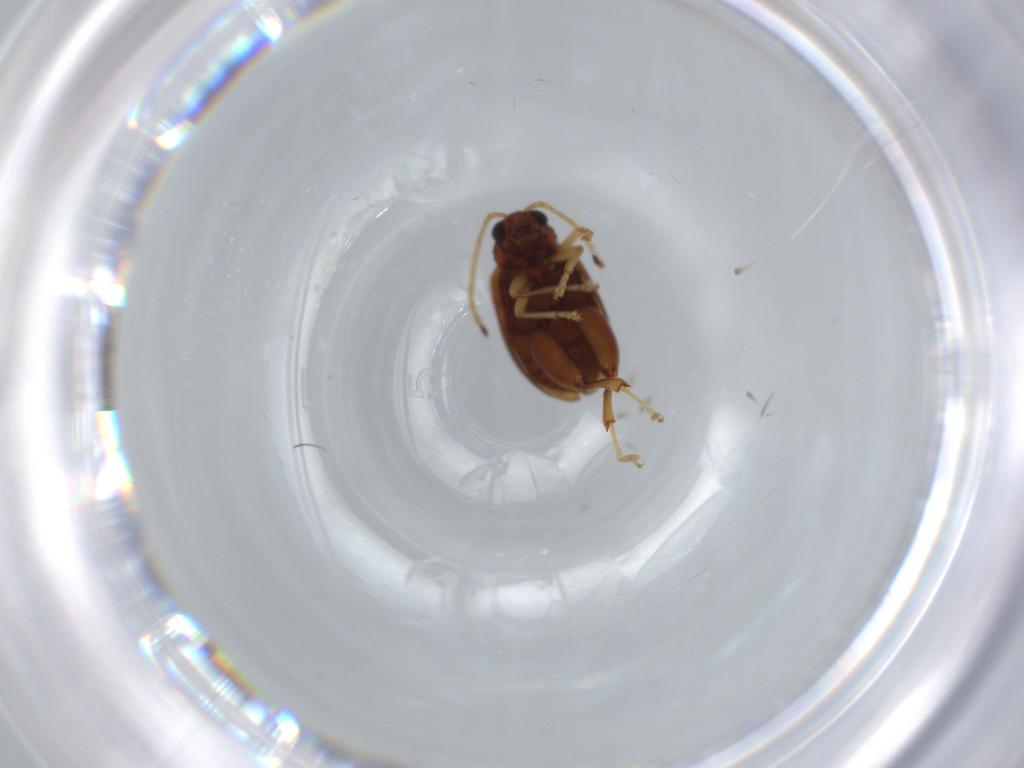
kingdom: Animalia
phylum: Arthropoda
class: Insecta
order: Coleoptera
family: Chrysomelidae
